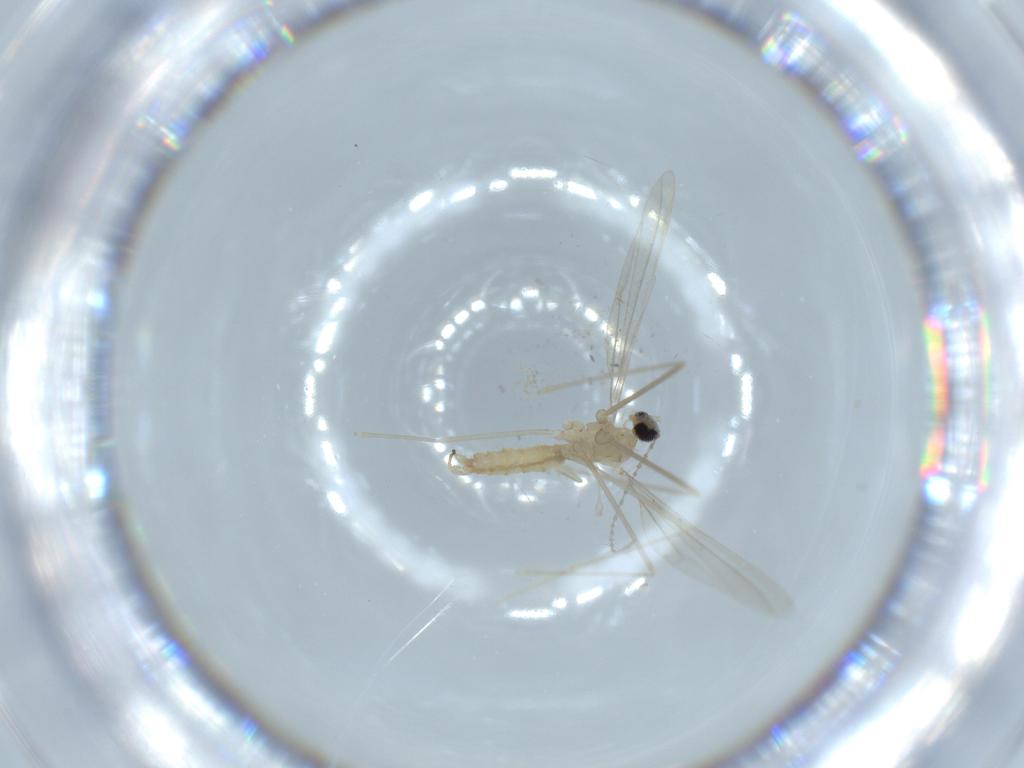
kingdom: Animalia
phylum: Arthropoda
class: Insecta
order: Diptera
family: Cecidomyiidae
